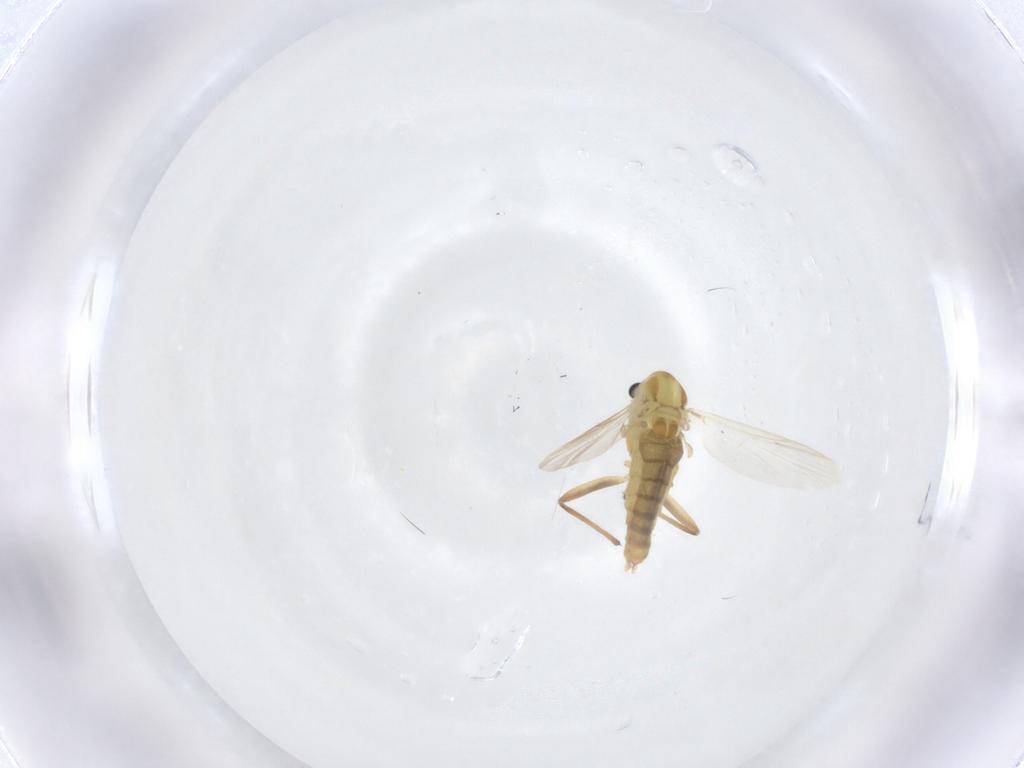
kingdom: Animalia
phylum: Arthropoda
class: Insecta
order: Diptera
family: Chironomidae
